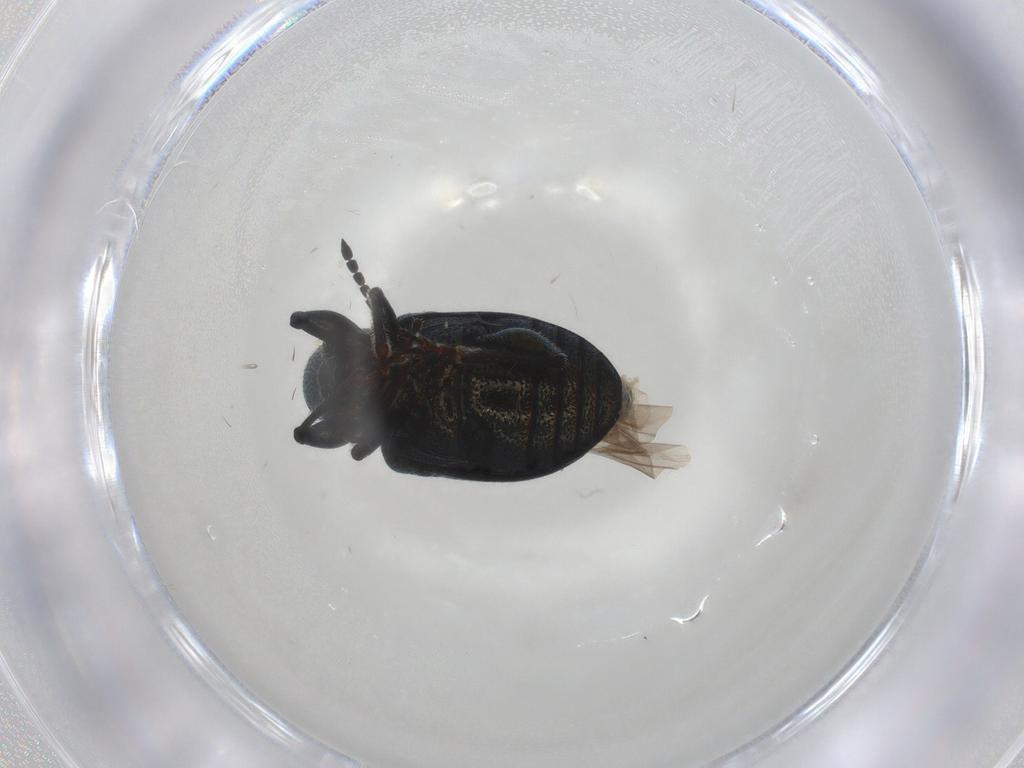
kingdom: Animalia
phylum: Arthropoda
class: Insecta
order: Coleoptera
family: Chrysomelidae
